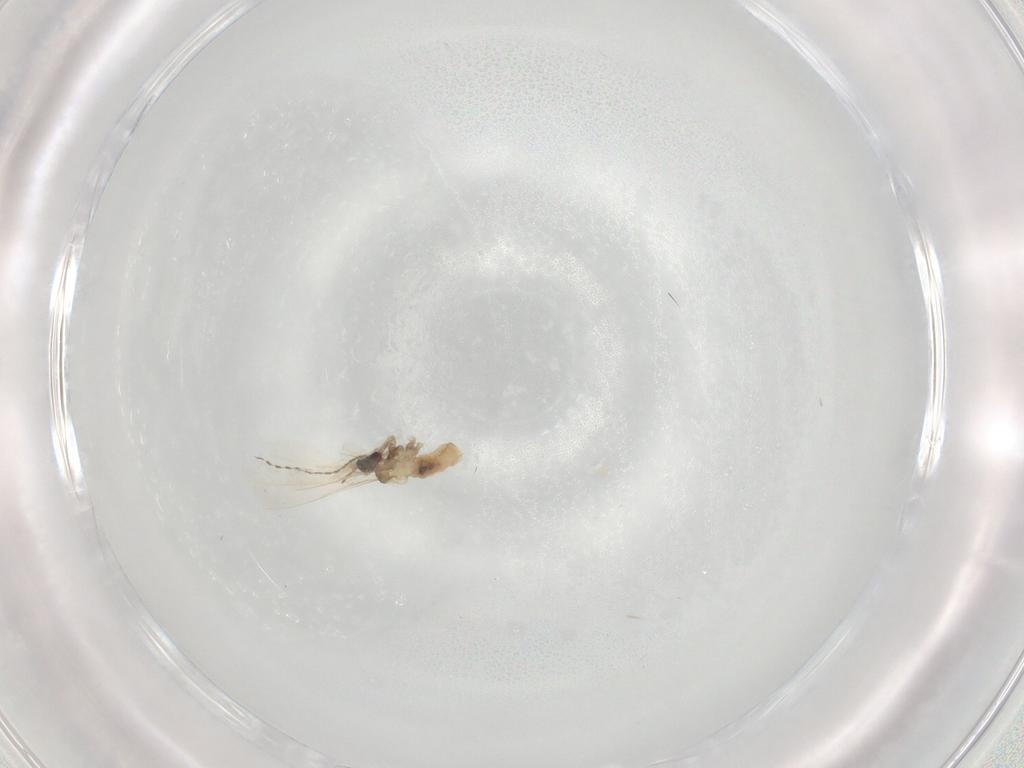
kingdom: Animalia
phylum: Arthropoda
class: Insecta
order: Diptera
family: Cecidomyiidae
